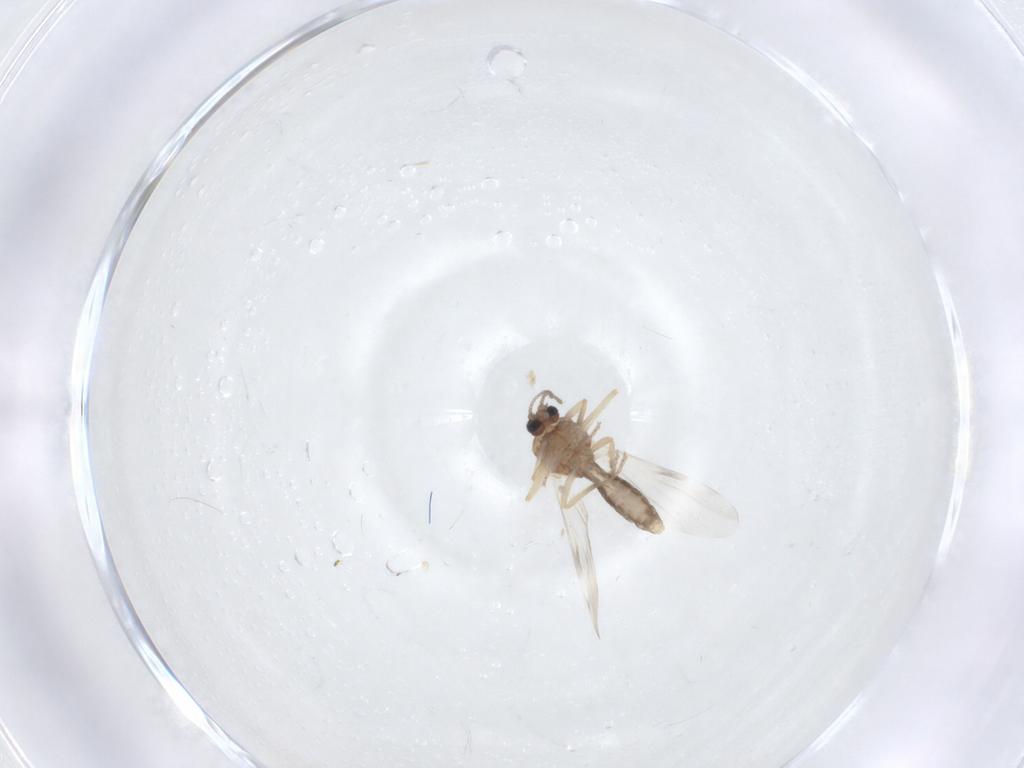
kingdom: Animalia
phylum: Arthropoda
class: Insecta
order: Diptera
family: Ceratopogonidae
